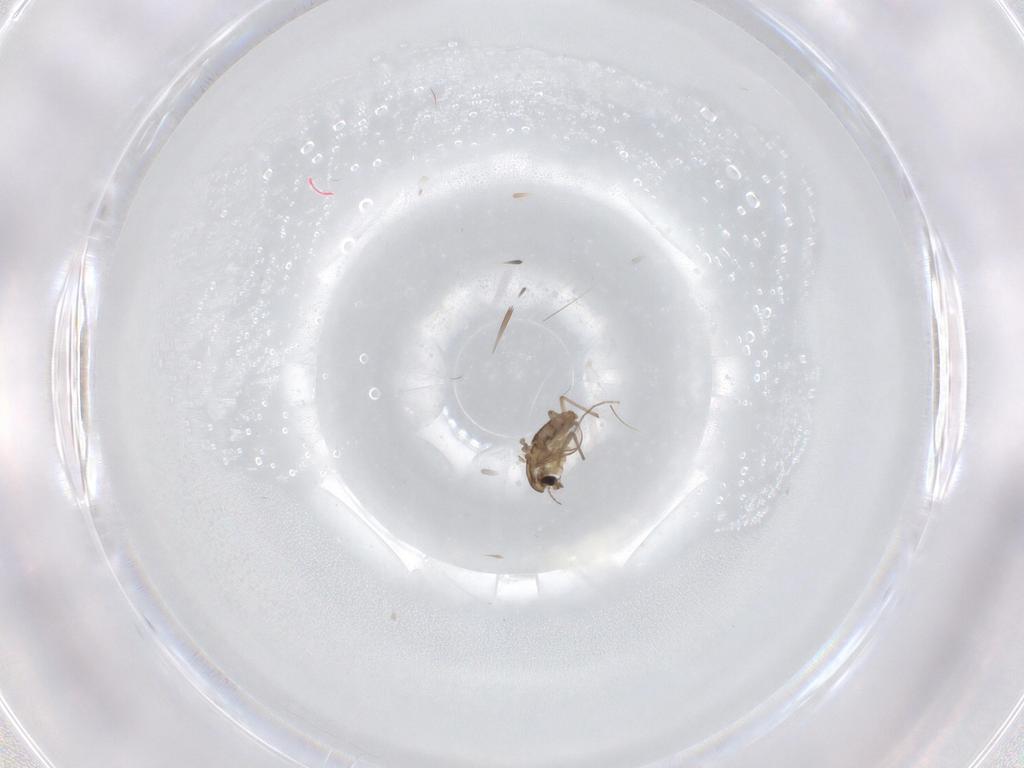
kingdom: Animalia
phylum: Arthropoda
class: Insecta
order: Diptera
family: Chironomidae
